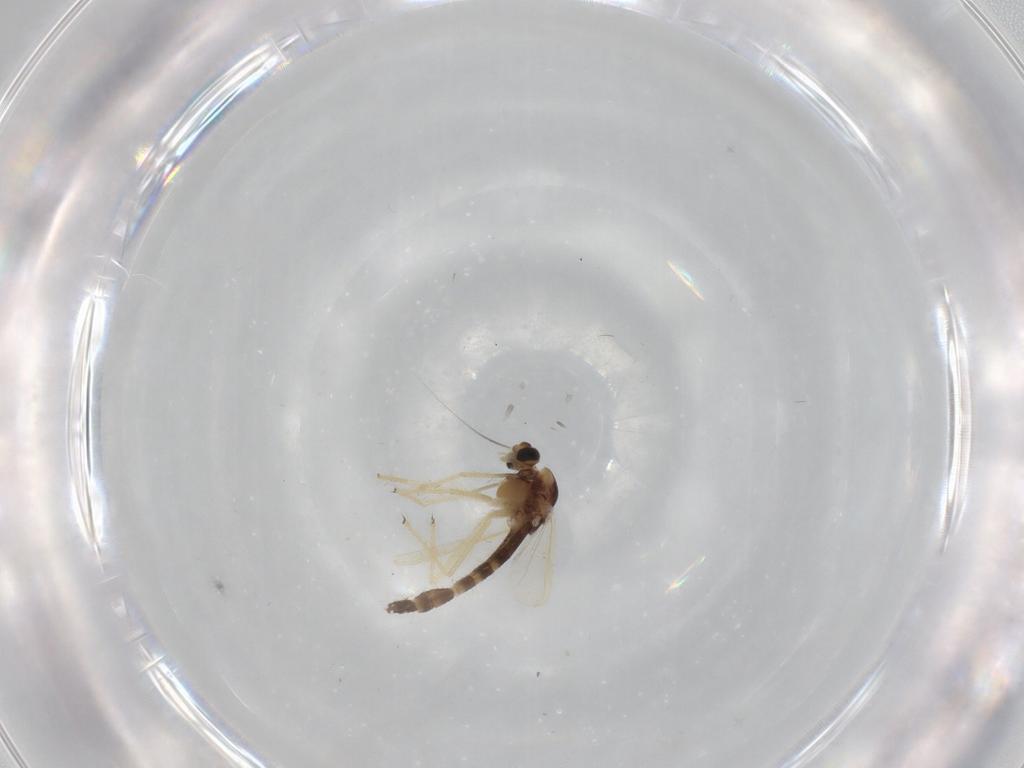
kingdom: Animalia
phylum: Arthropoda
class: Insecta
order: Diptera
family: Chironomidae
